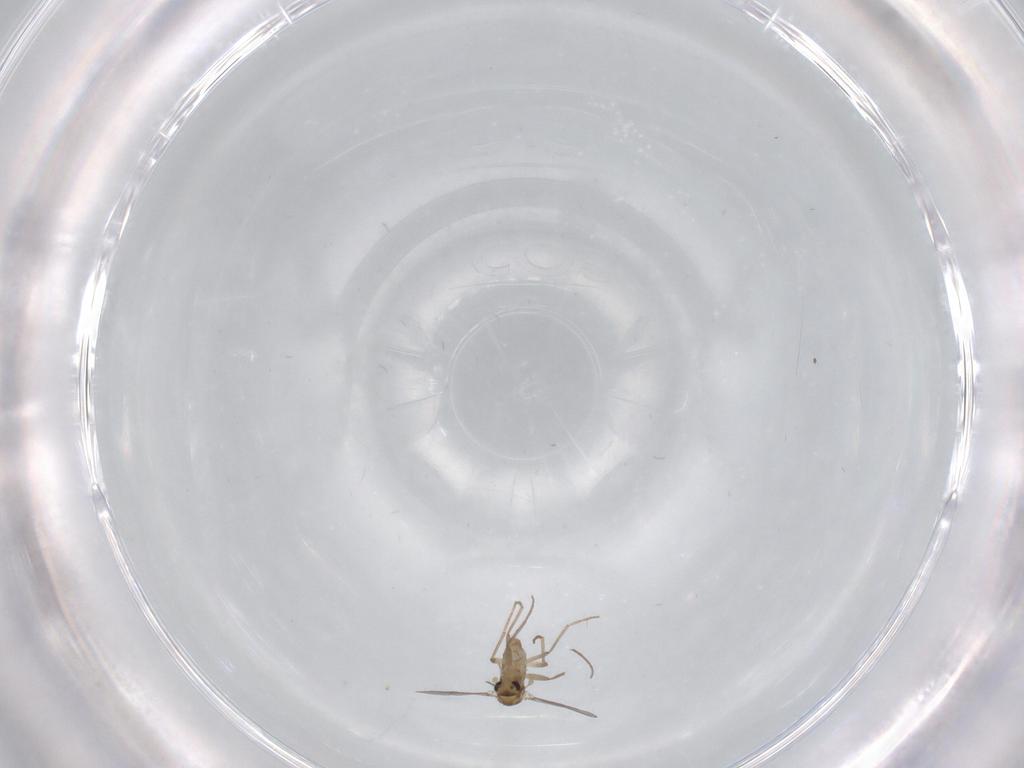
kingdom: Animalia
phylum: Arthropoda
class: Insecta
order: Diptera
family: Chironomidae
